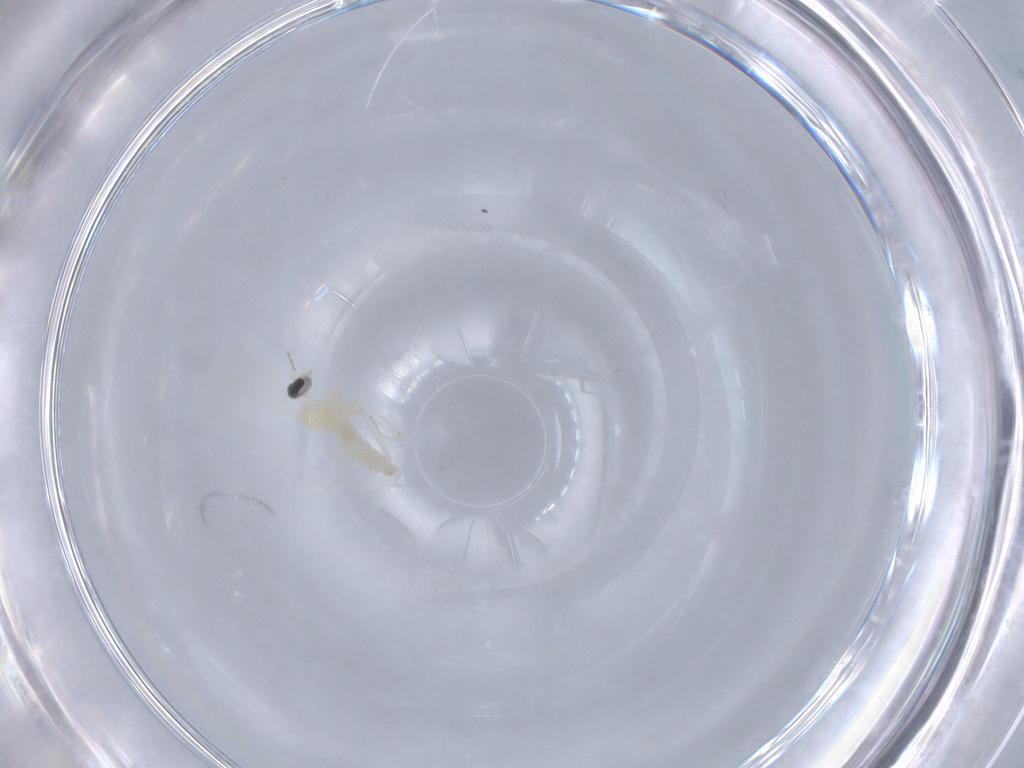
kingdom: Animalia
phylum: Arthropoda
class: Insecta
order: Diptera
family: Cecidomyiidae
